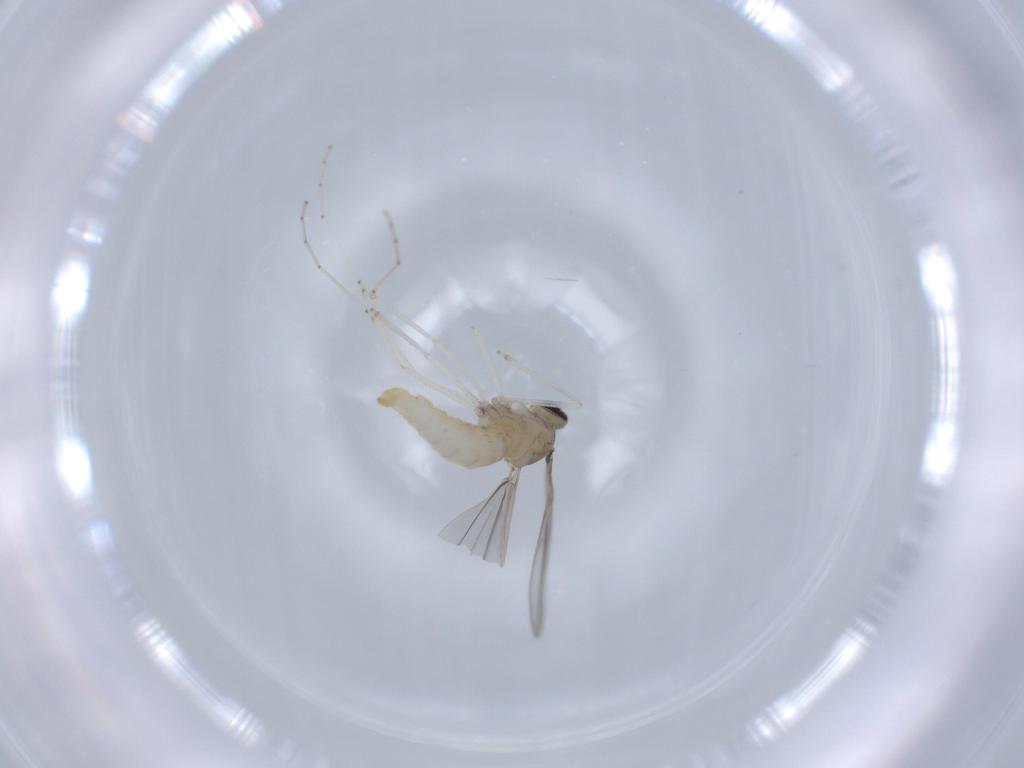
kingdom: Animalia
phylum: Arthropoda
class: Insecta
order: Diptera
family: Cecidomyiidae
